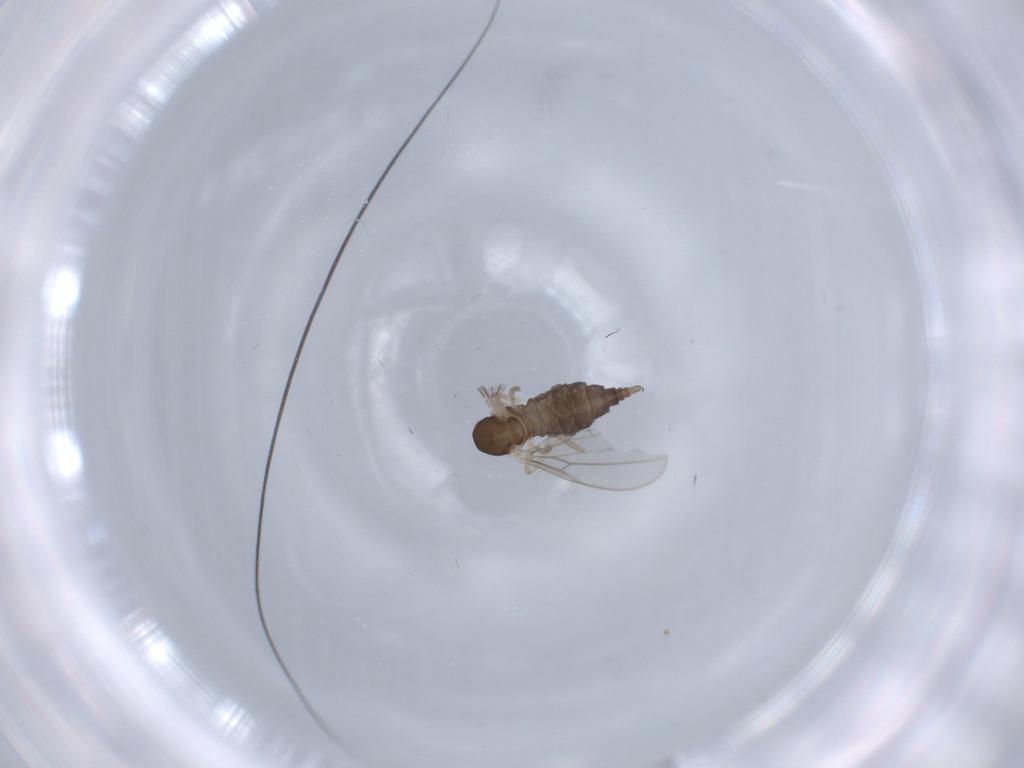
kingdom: Animalia
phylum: Arthropoda
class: Insecta
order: Diptera
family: Cecidomyiidae
